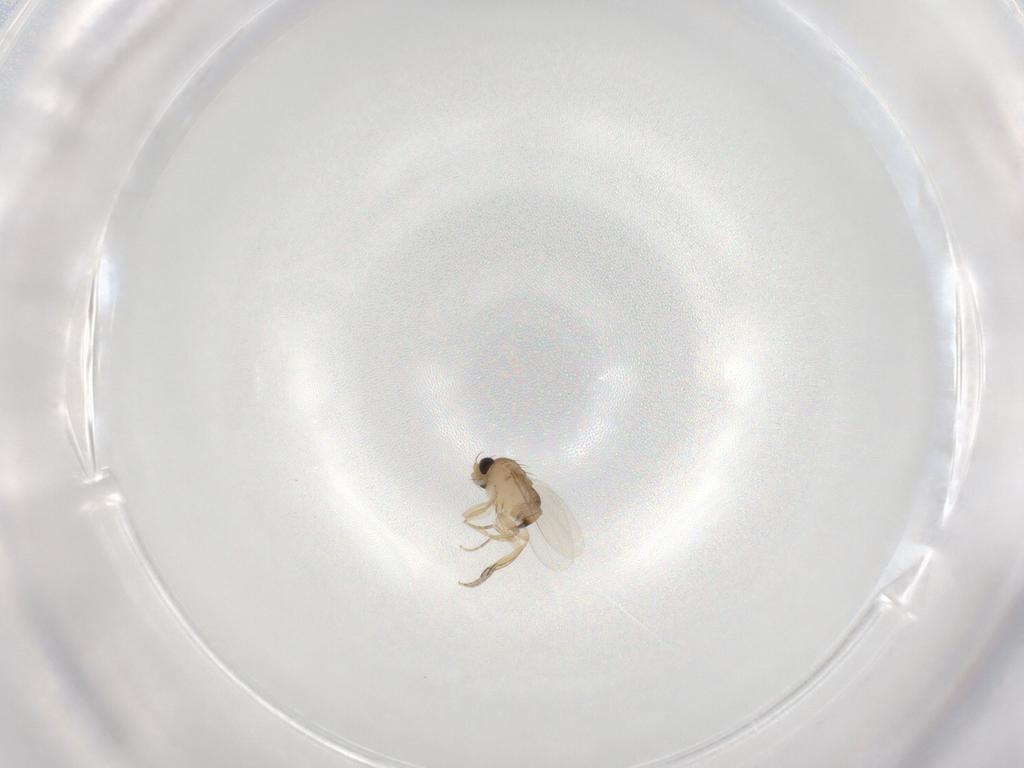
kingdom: Animalia
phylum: Arthropoda
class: Insecta
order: Diptera
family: Phoridae
